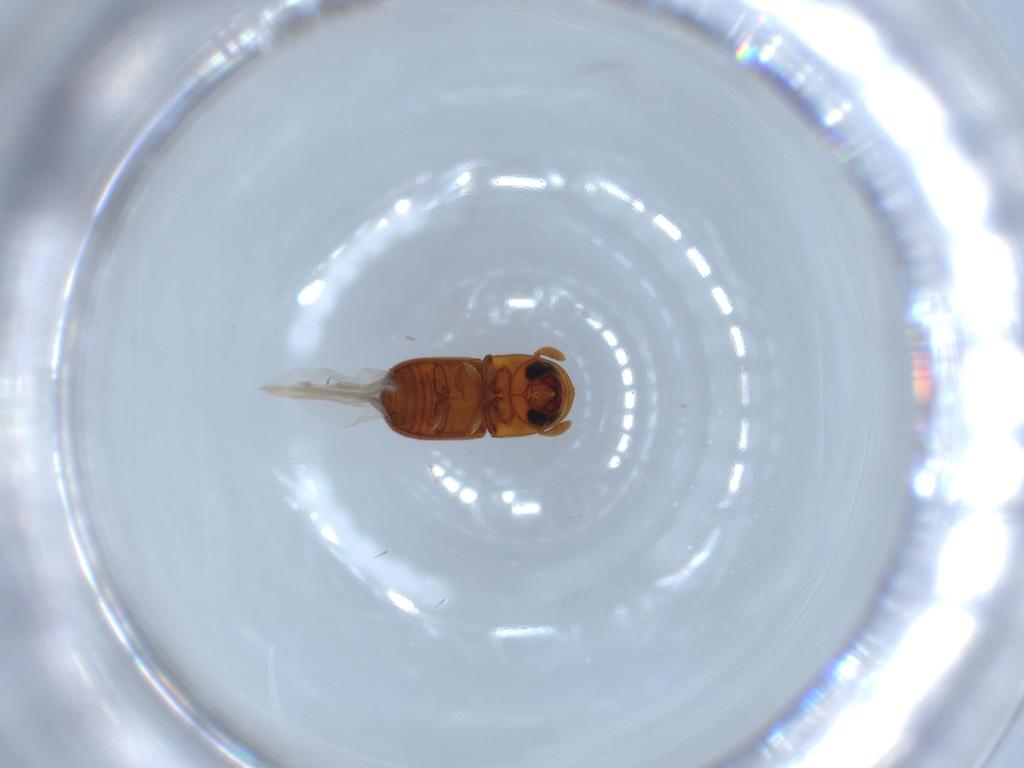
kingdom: Animalia
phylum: Arthropoda
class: Insecta
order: Coleoptera
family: Curculionidae
